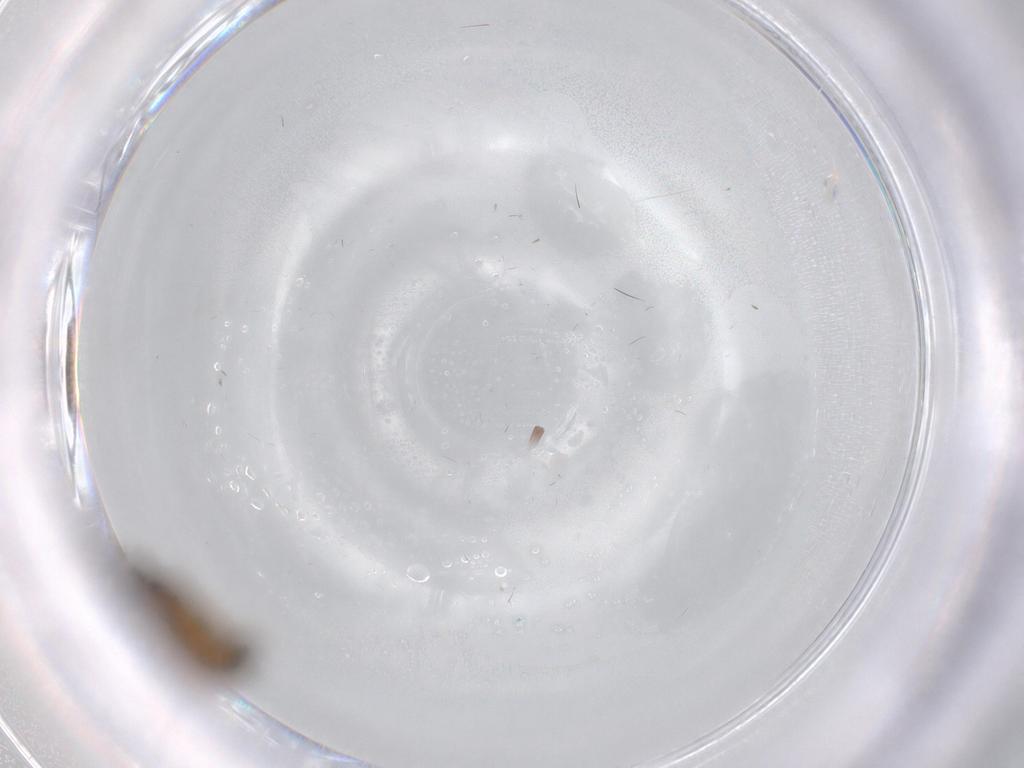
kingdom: Animalia
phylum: Arthropoda
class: Insecta
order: Diptera
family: Chironomidae
